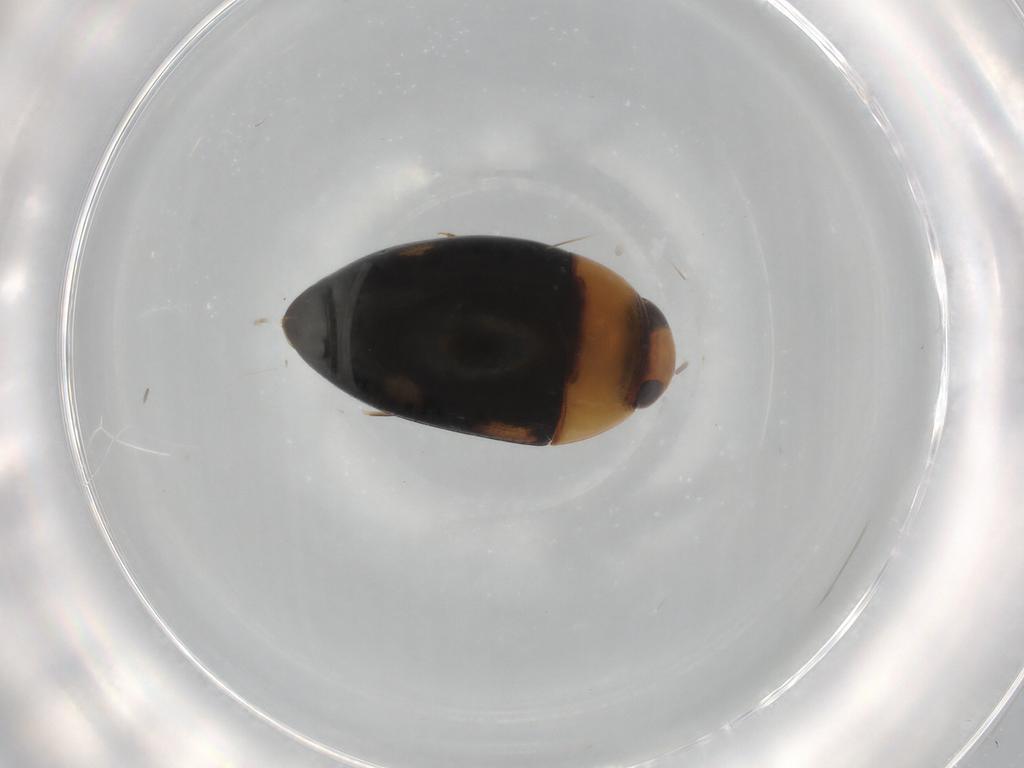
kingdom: Animalia
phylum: Arthropoda
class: Insecta
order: Coleoptera
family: Noteridae
